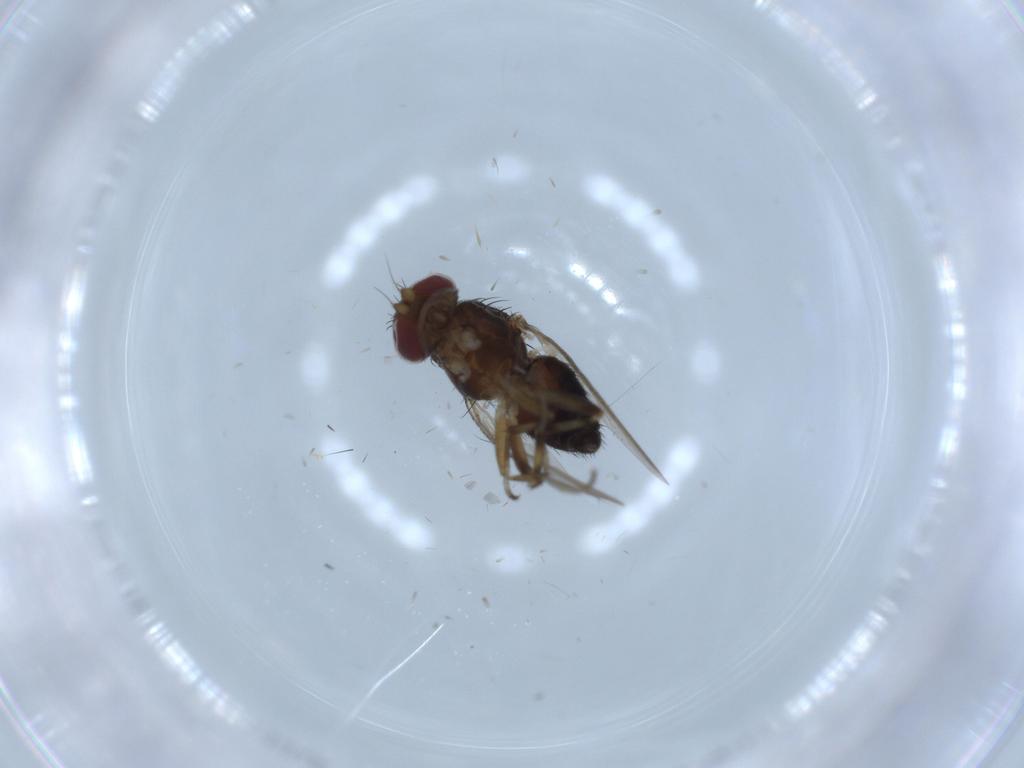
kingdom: Animalia
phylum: Arthropoda
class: Insecta
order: Diptera
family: Heleomyzidae
